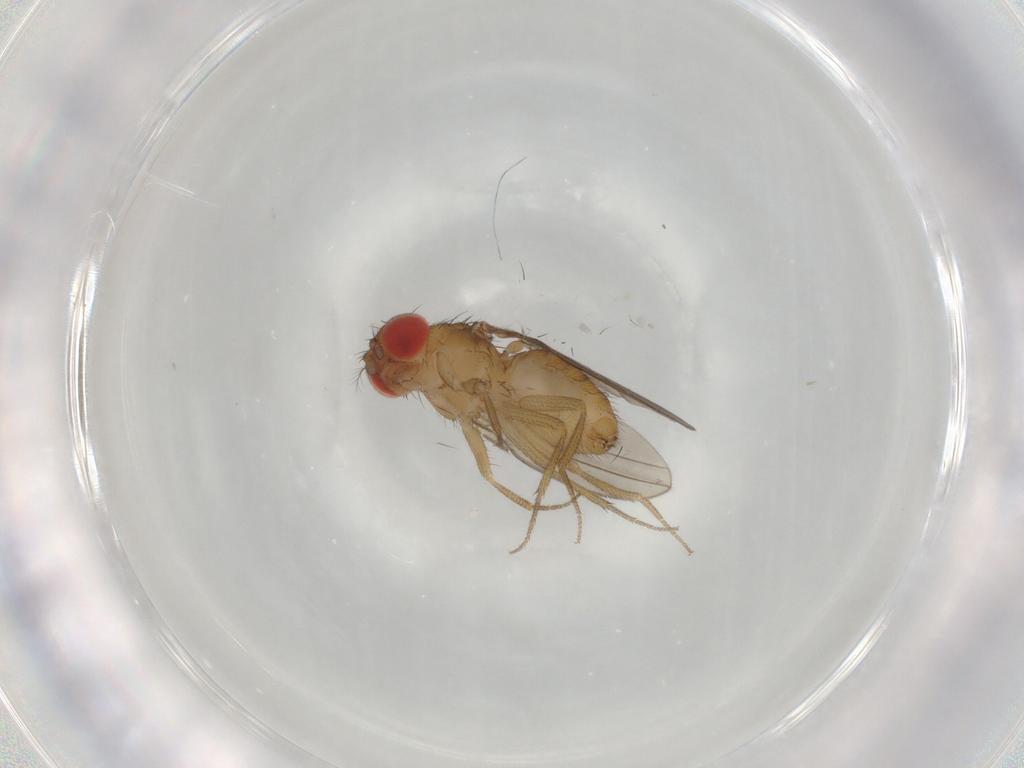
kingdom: Animalia
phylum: Arthropoda
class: Insecta
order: Diptera
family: Drosophilidae
